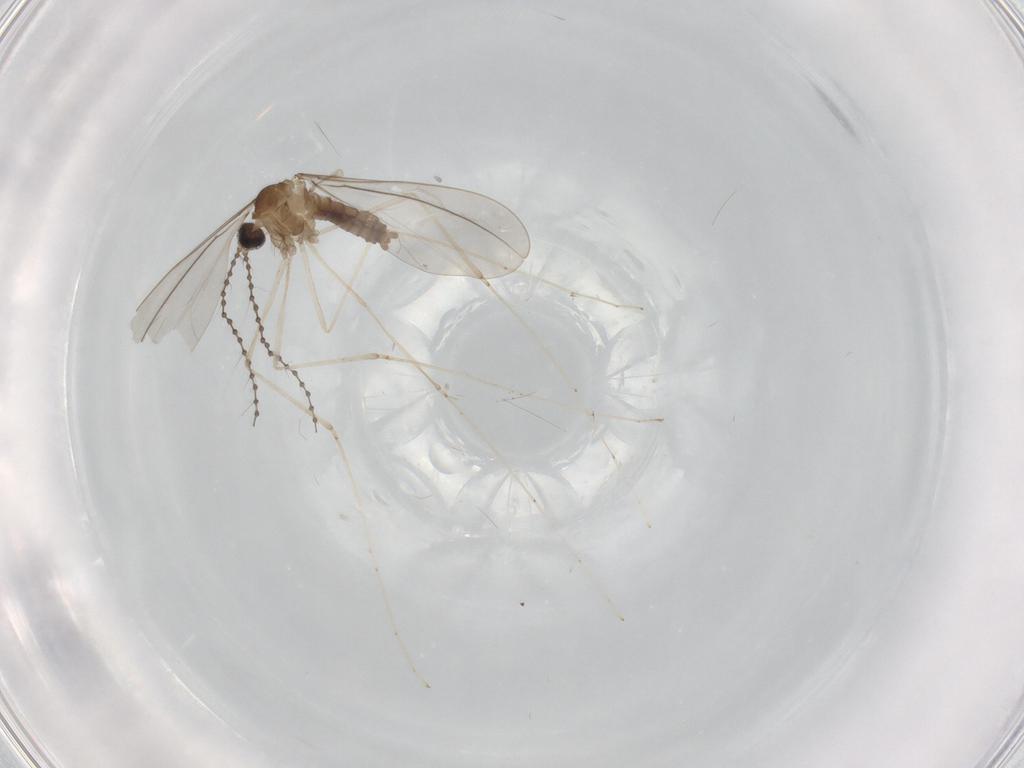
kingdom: Animalia
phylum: Arthropoda
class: Insecta
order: Diptera
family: Cecidomyiidae
